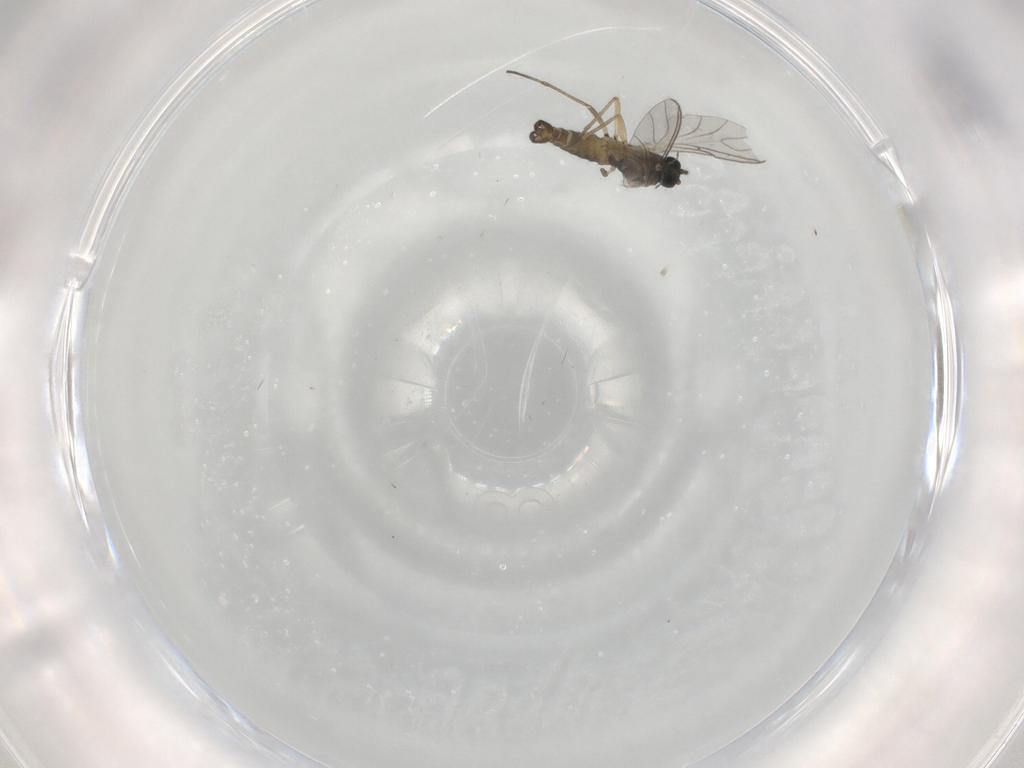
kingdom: Animalia
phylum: Arthropoda
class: Insecta
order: Diptera
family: Sciaridae
